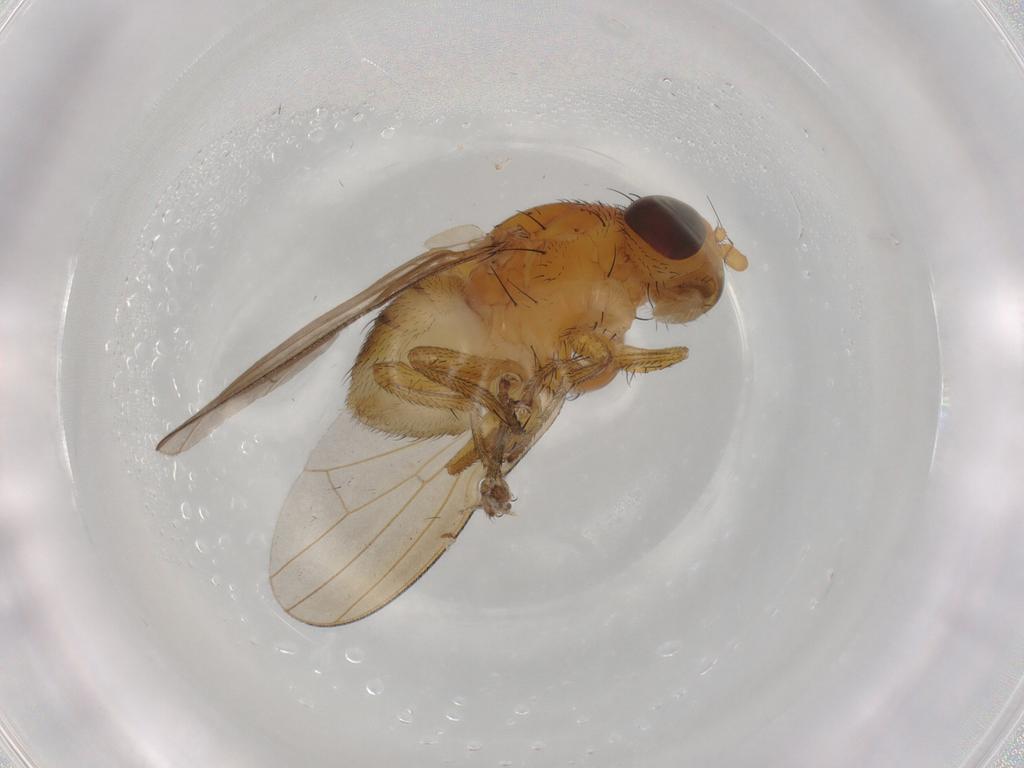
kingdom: Animalia
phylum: Arthropoda
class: Insecta
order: Diptera
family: Lauxaniidae
